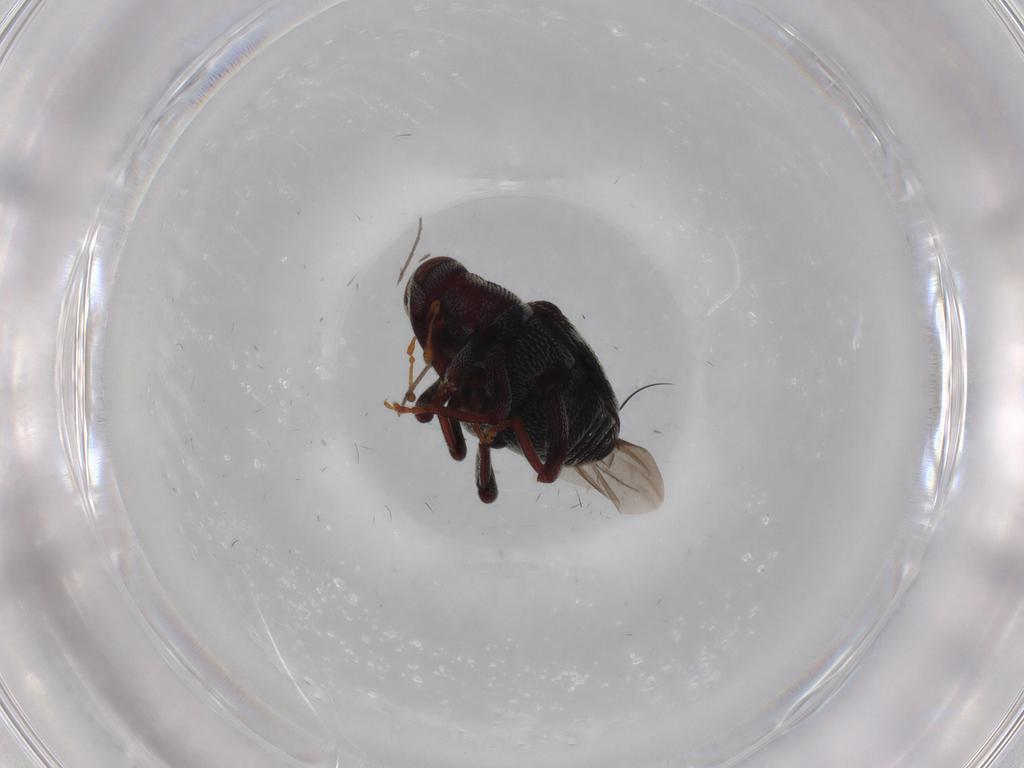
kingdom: Animalia
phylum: Arthropoda
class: Insecta
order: Coleoptera
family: Curculionidae
